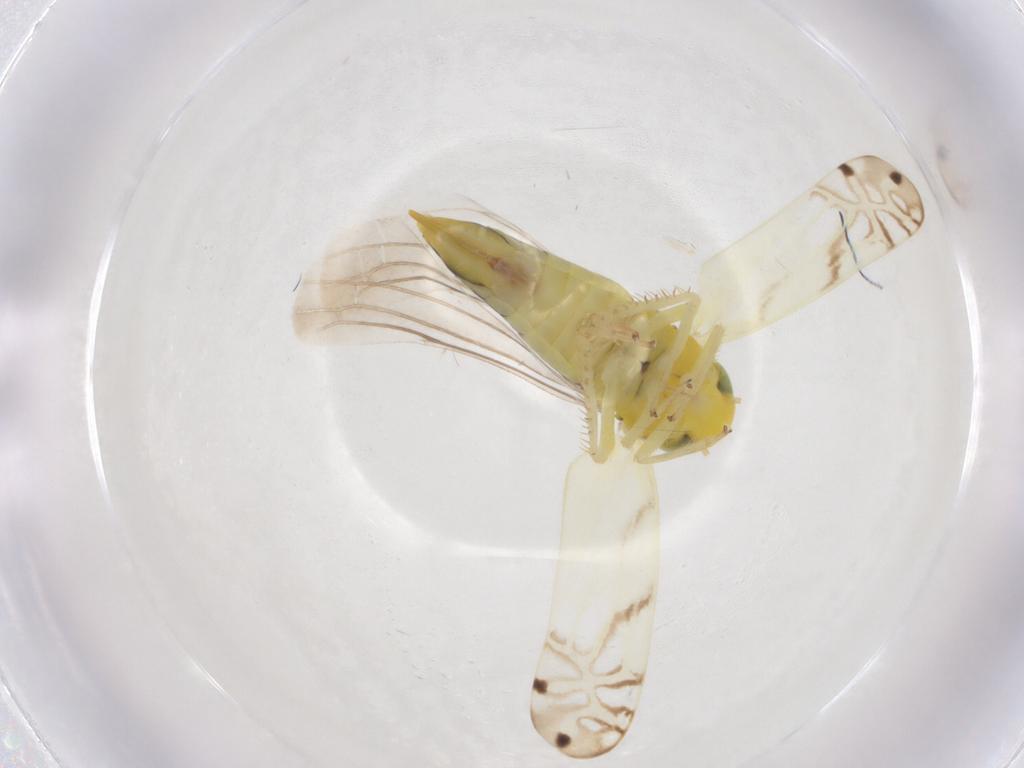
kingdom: Animalia
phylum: Arthropoda
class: Insecta
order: Hemiptera
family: Cicadellidae
